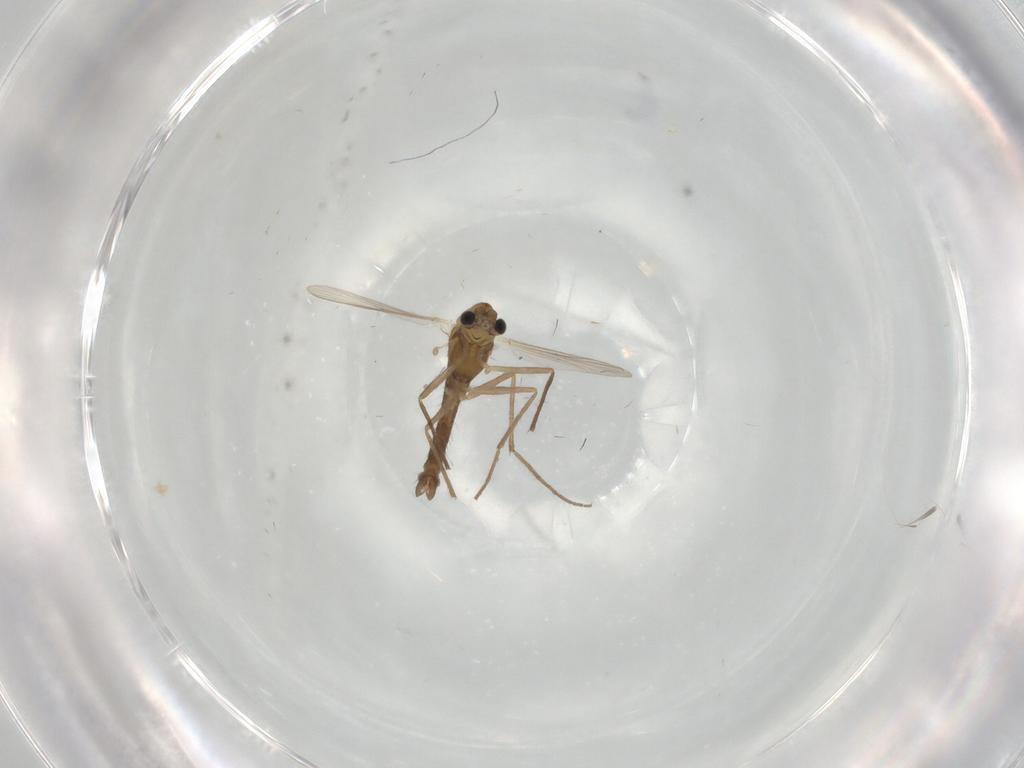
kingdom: Animalia
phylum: Arthropoda
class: Insecta
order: Diptera
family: Chironomidae
